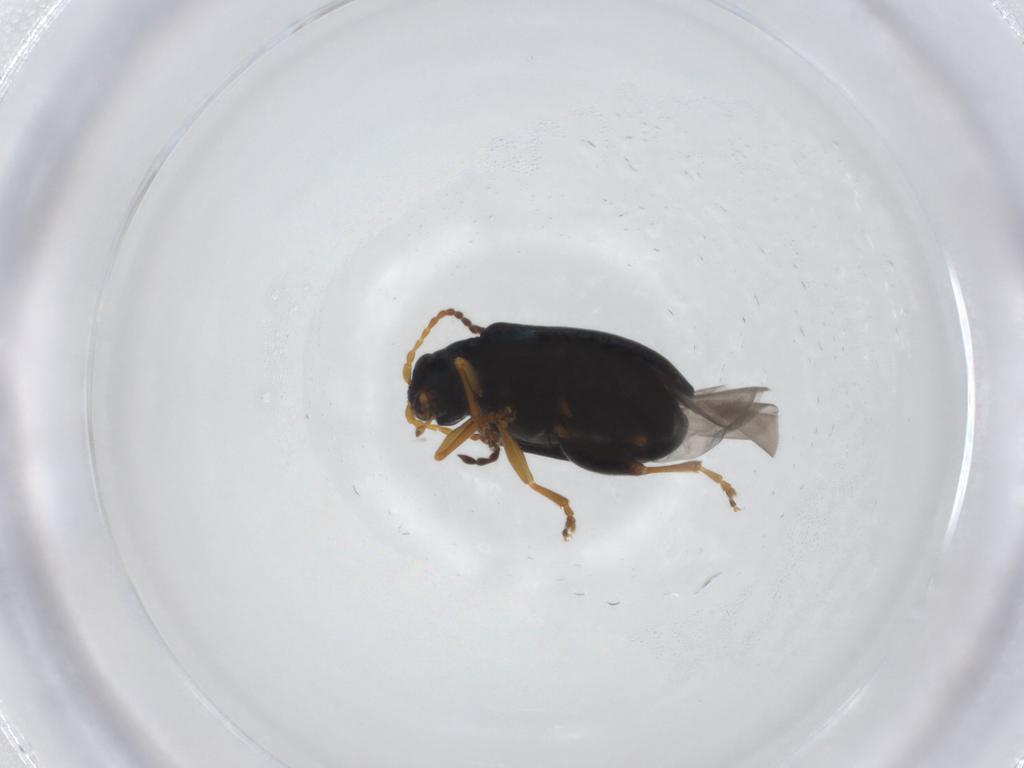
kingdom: Animalia
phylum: Arthropoda
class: Insecta
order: Coleoptera
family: Chrysomelidae
